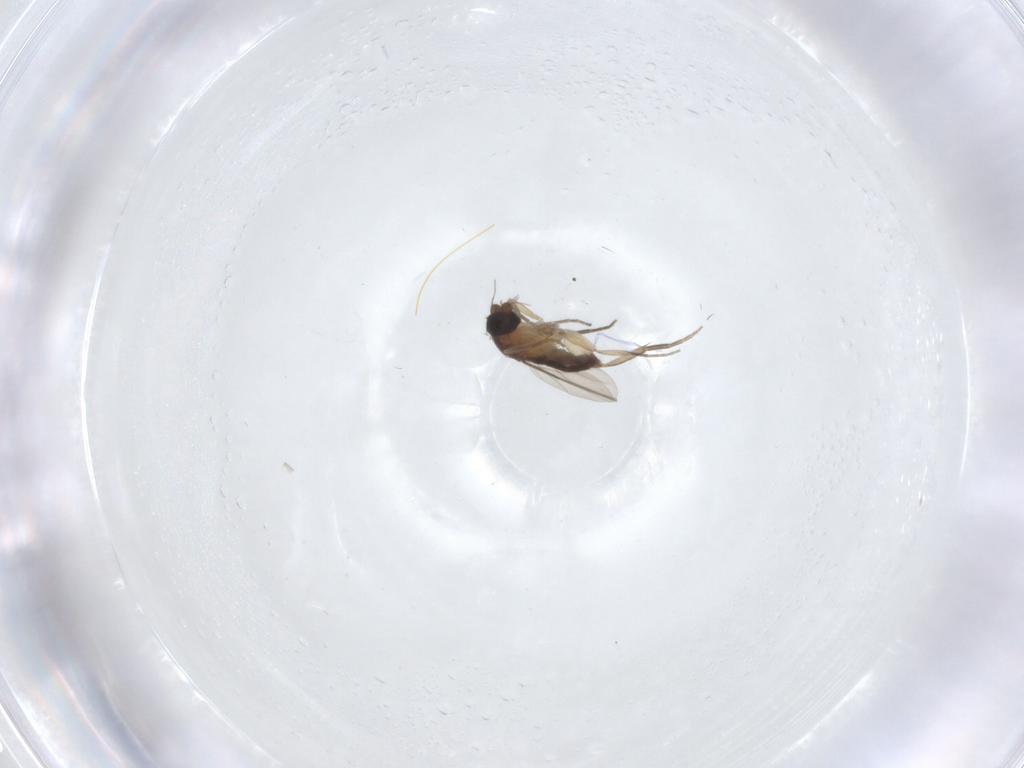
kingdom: Animalia
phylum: Arthropoda
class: Insecta
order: Diptera
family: Phoridae
